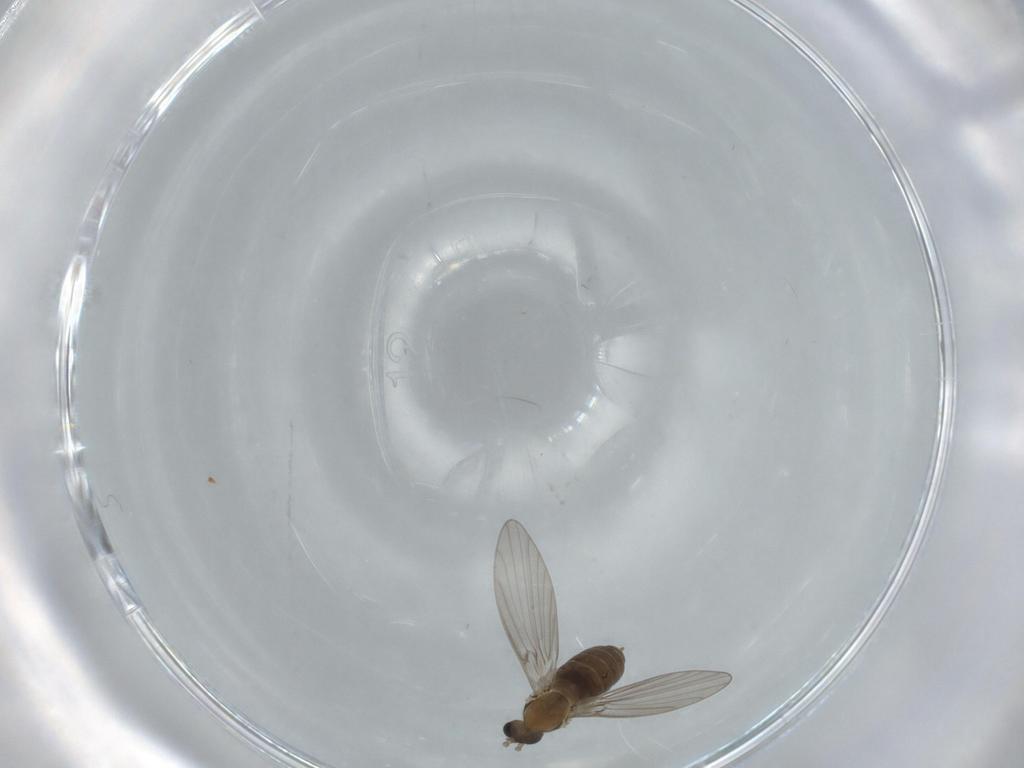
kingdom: Animalia
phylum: Arthropoda
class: Insecta
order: Diptera
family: Psychodidae
